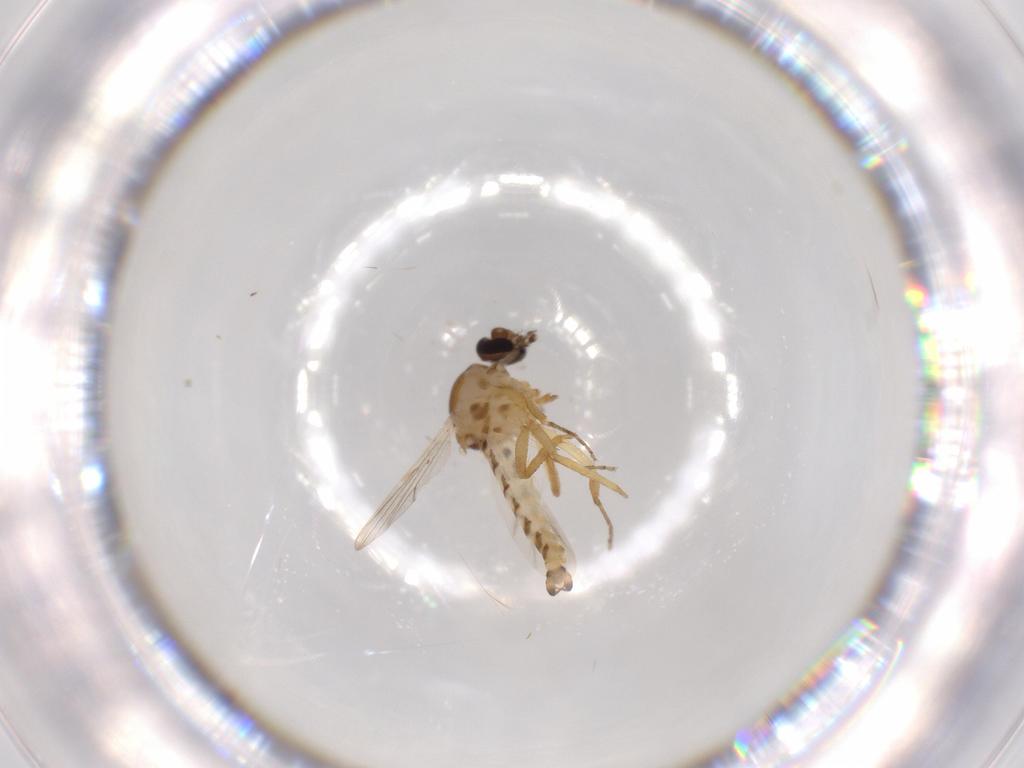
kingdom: Animalia
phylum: Arthropoda
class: Insecta
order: Diptera
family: Ceratopogonidae
